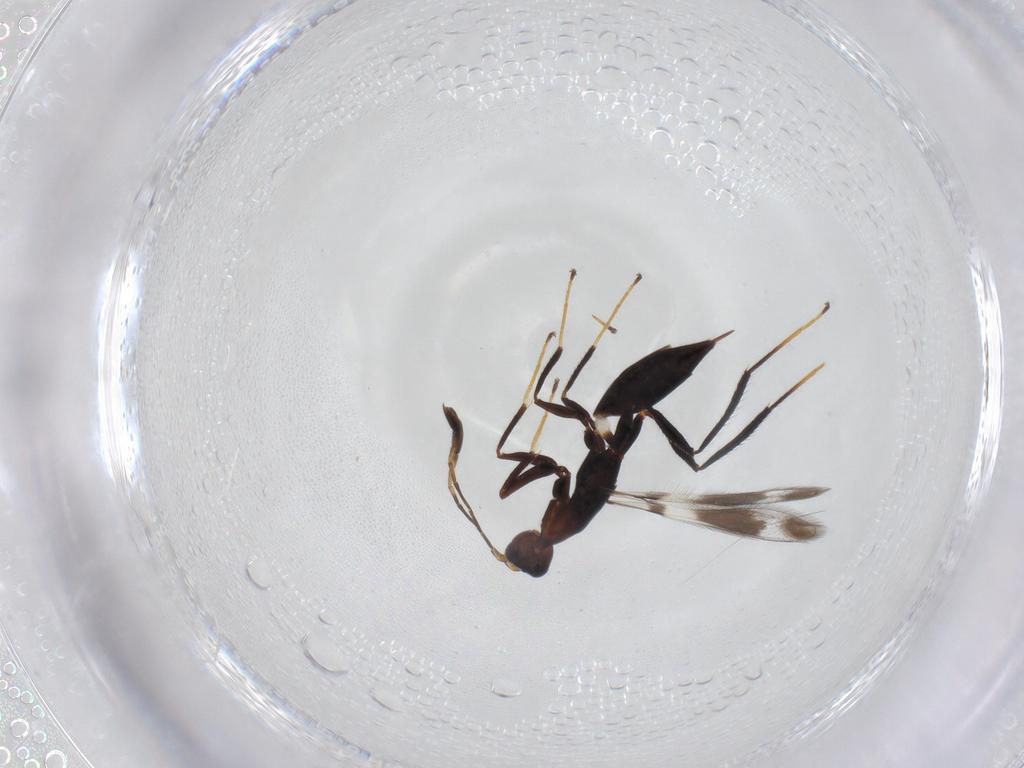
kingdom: Animalia
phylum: Arthropoda
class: Insecta
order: Hymenoptera
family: Mymaridae
